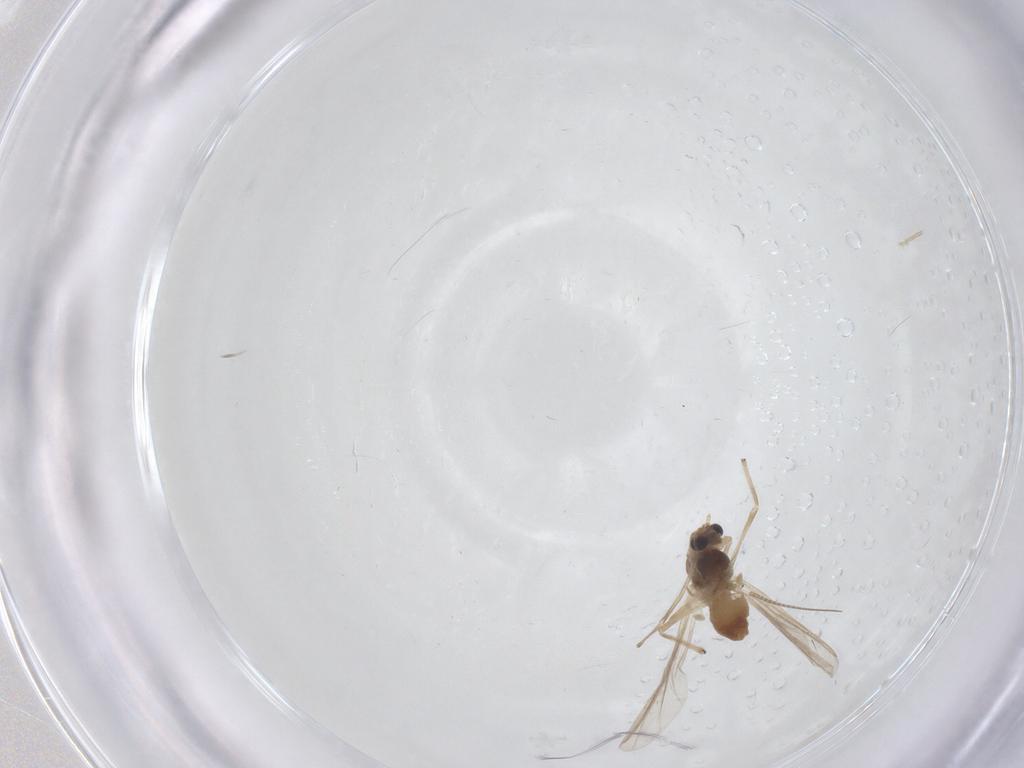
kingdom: Animalia
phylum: Arthropoda
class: Insecta
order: Diptera
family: Chironomidae
